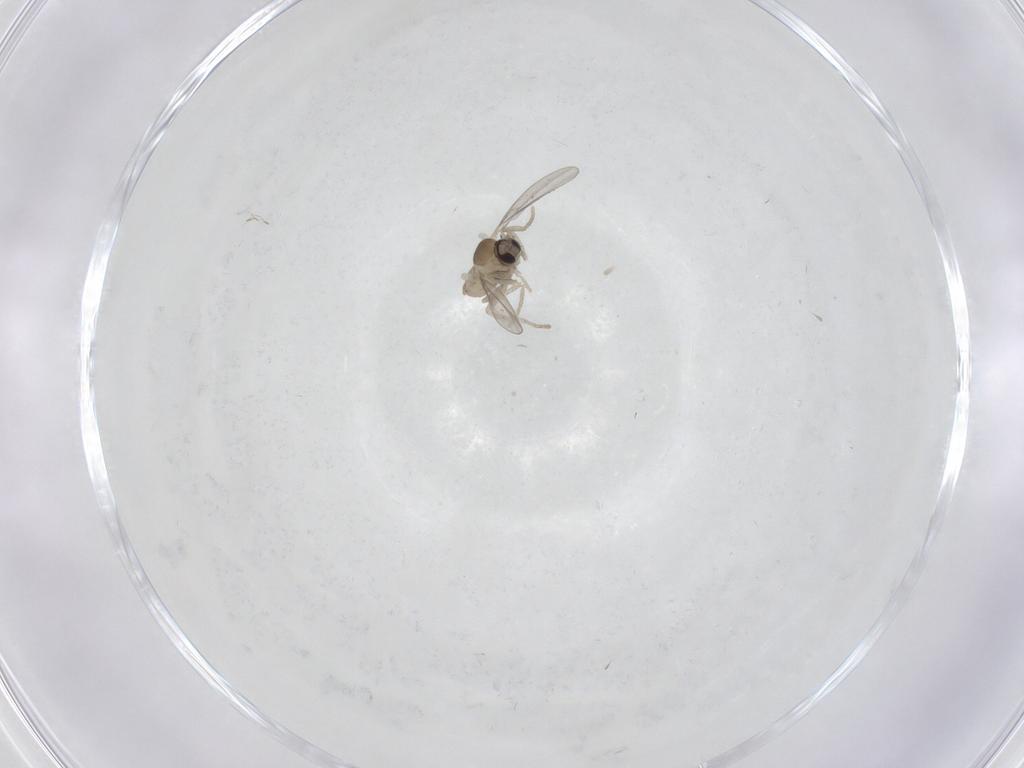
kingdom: Animalia
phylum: Arthropoda
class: Insecta
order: Diptera
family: Cecidomyiidae
